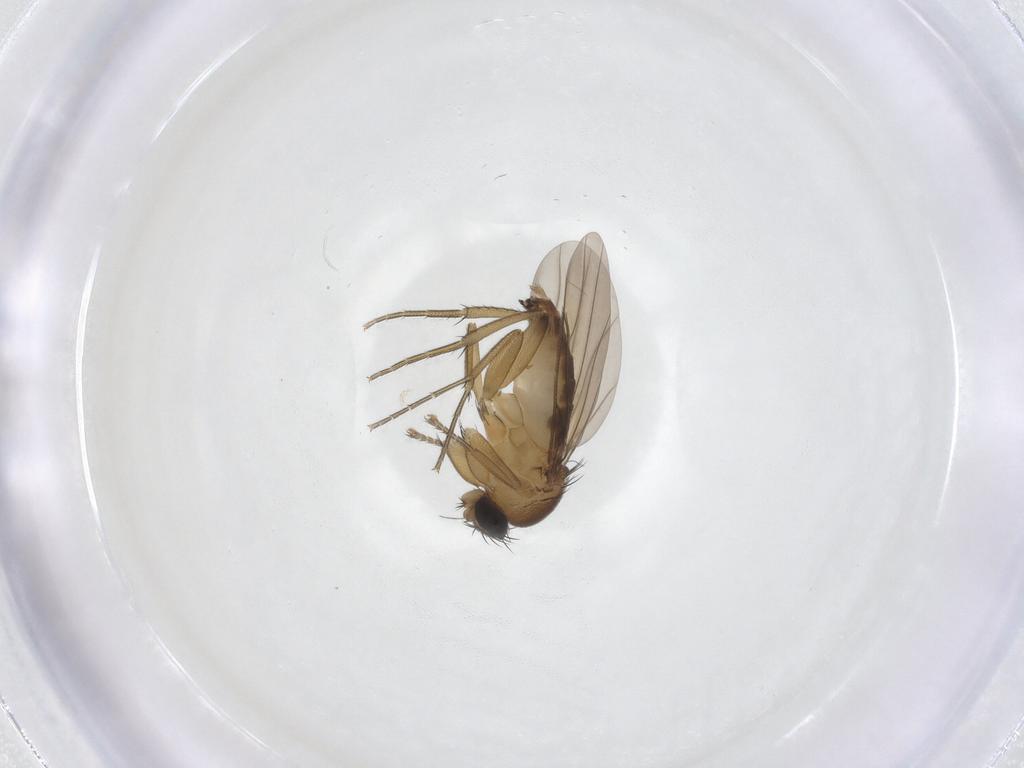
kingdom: Animalia
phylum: Arthropoda
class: Insecta
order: Diptera
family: Phoridae
